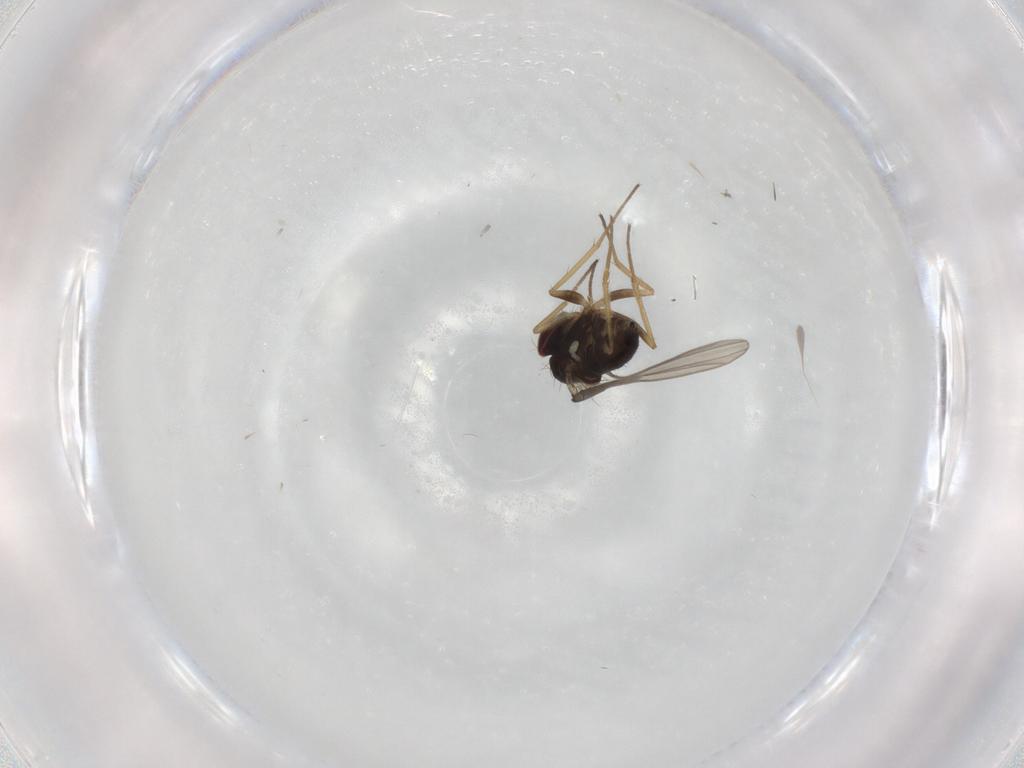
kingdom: Animalia
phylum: Arthropoda
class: Insecta
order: Diptera
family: Dolichopodidae
